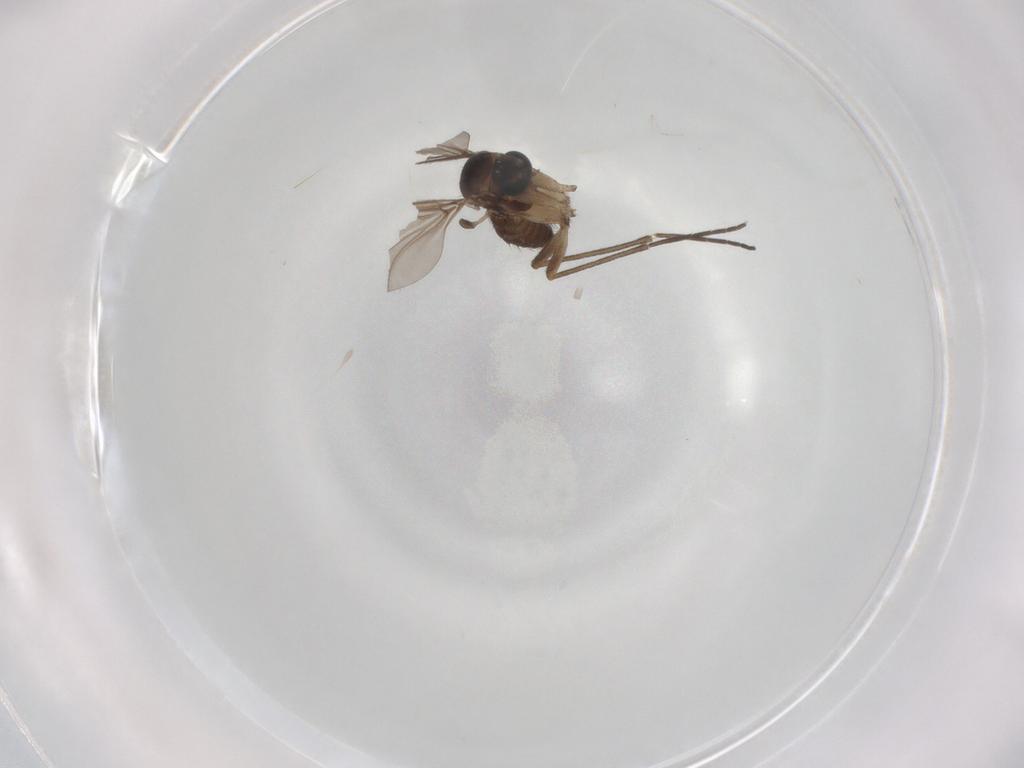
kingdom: Animalia
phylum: Arthropoda
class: Insecta
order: Diptera
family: Sciaridae
